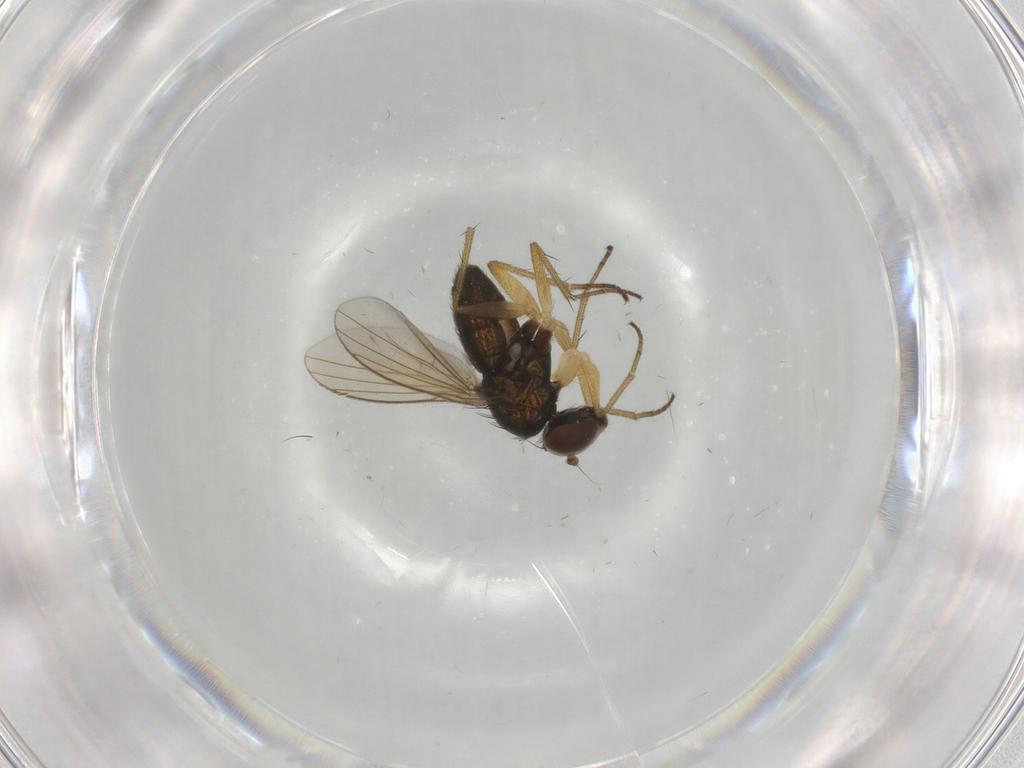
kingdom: Animalia
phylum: Arthropoda
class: Insecta
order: Diptera
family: Dolichopodidae
